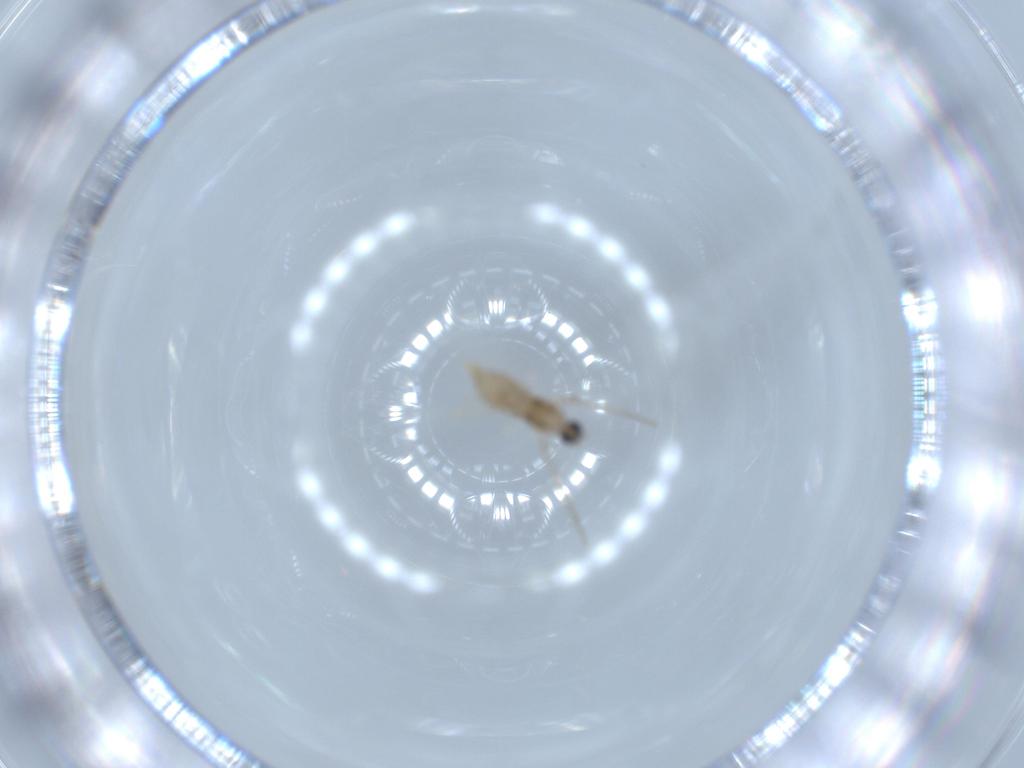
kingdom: Animalia
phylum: Arthropoda
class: Insecta
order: Diptera
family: Cecidomyiidae
